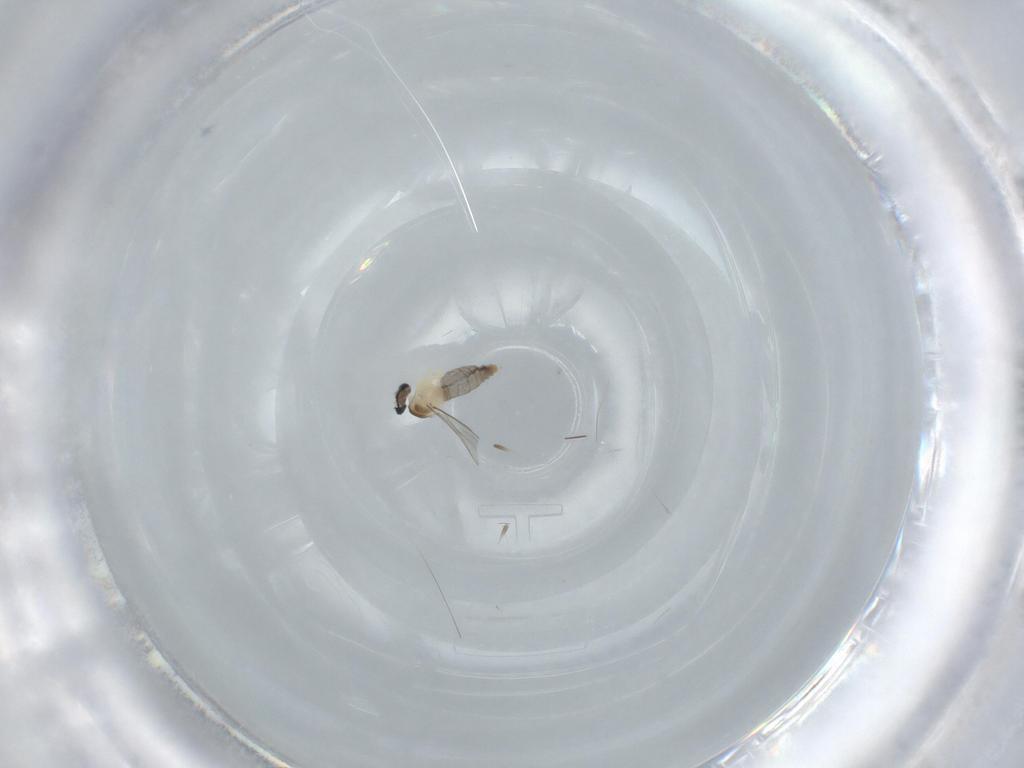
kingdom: Animalia
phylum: Arthropoda
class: Insecta
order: Diptera
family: Cecidomyiidae
